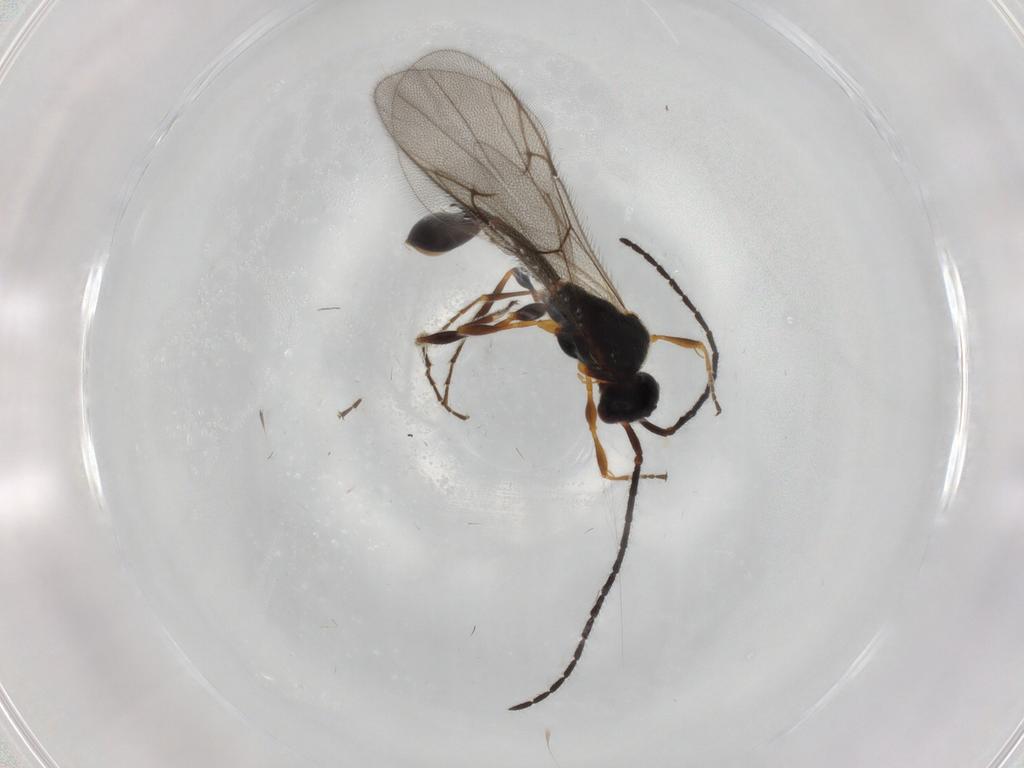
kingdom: Animalia
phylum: Arthropoda
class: Insecta
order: Hymenoptera
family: Diapriidae
